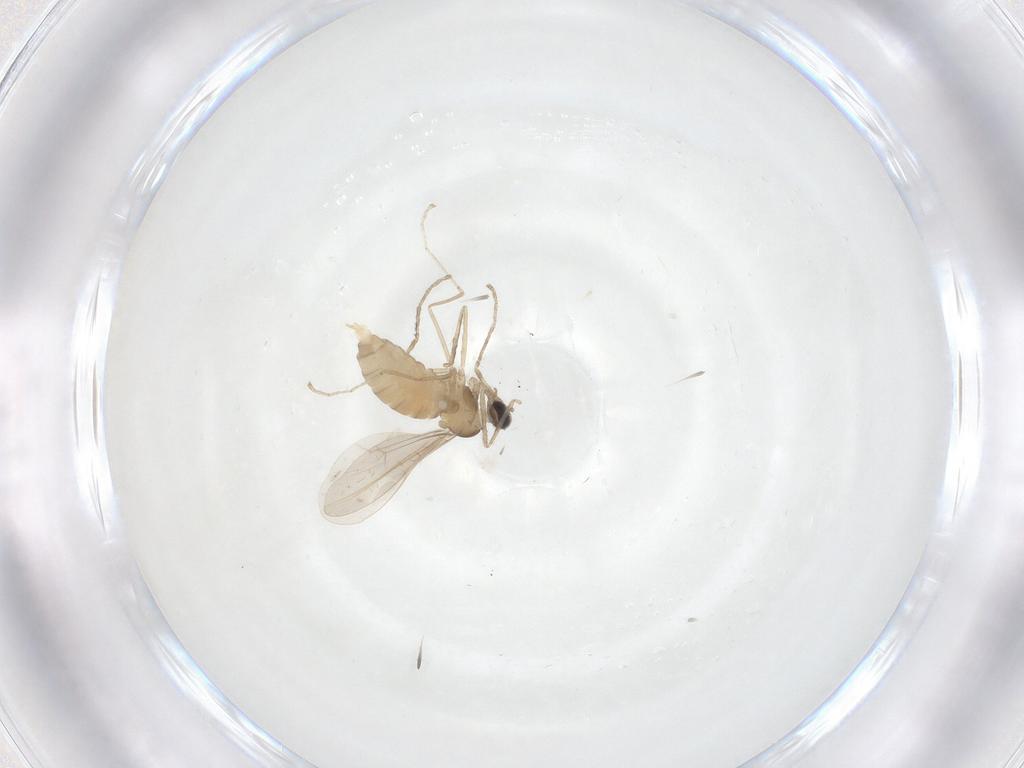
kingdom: Animalia
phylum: Arthropoda
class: Insecta
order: Diptera
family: Cecidomyiidae
